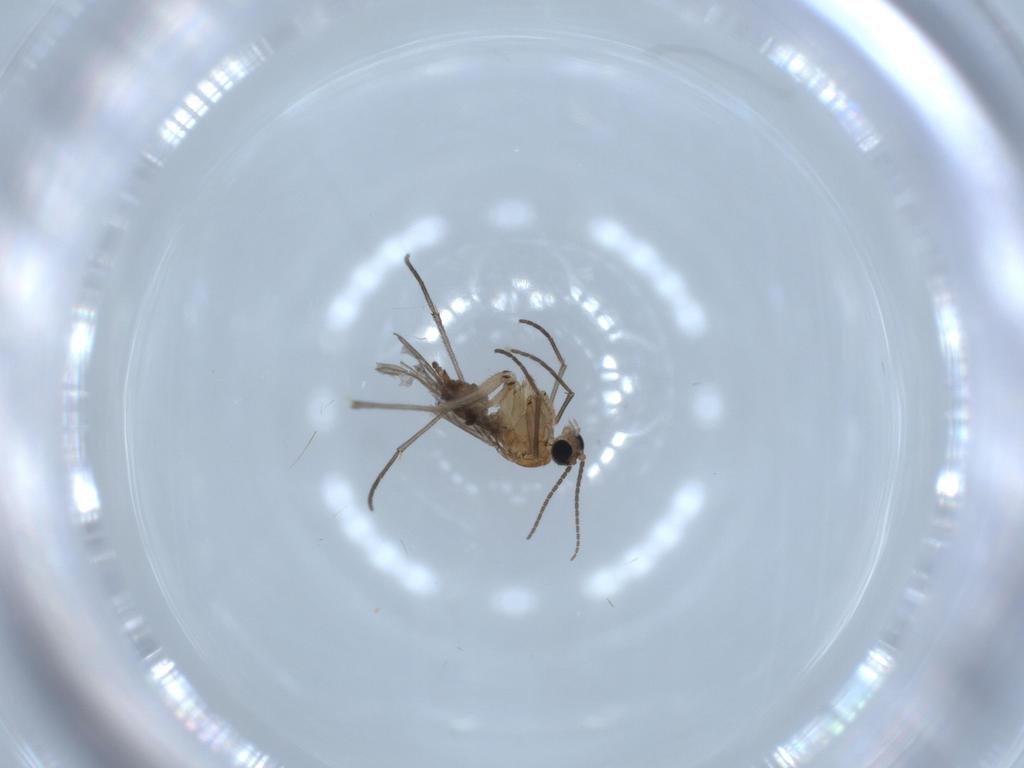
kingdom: Animalia
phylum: Arthropoda
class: Insecta
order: Diptera
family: Sciaridae
